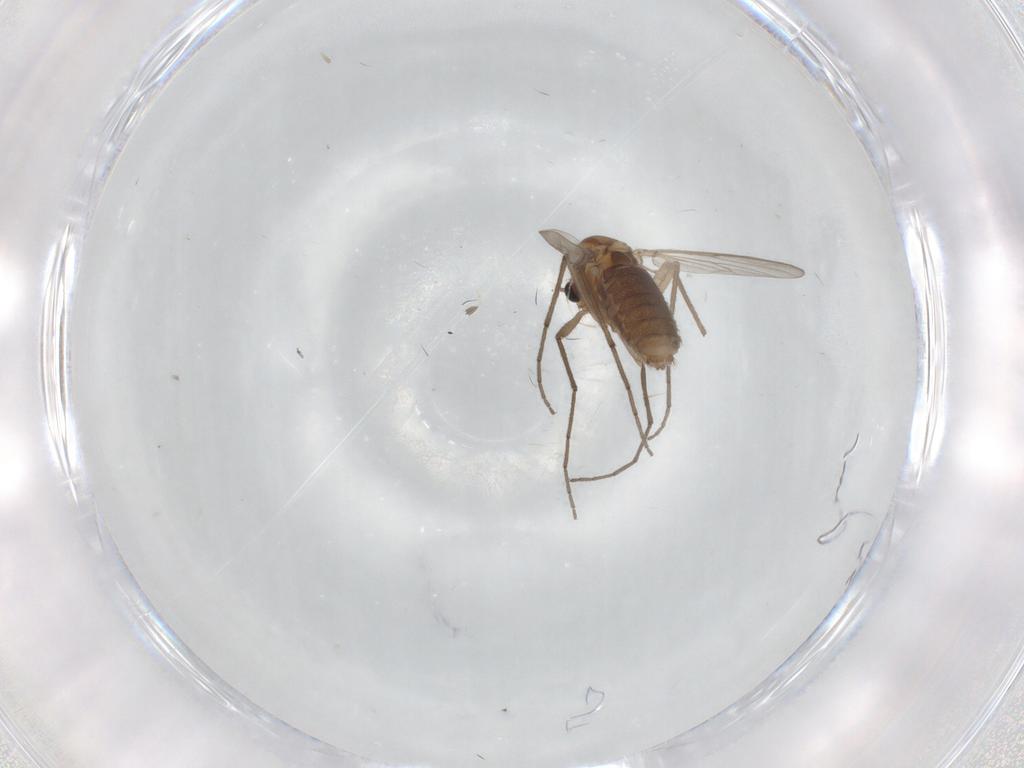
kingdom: Animalia
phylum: Arthropoda
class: Insecta
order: Diptera
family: Chironomidae
